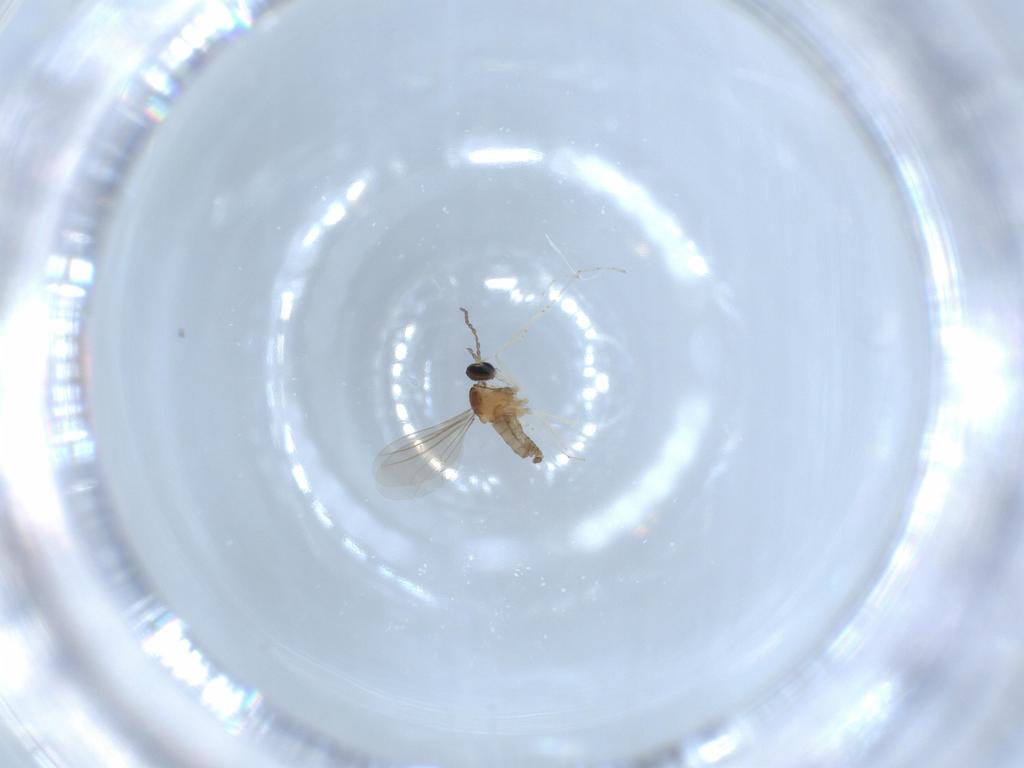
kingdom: Animalia
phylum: Arthropoda
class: Insecta
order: Diptera
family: Cecidomyiidae
